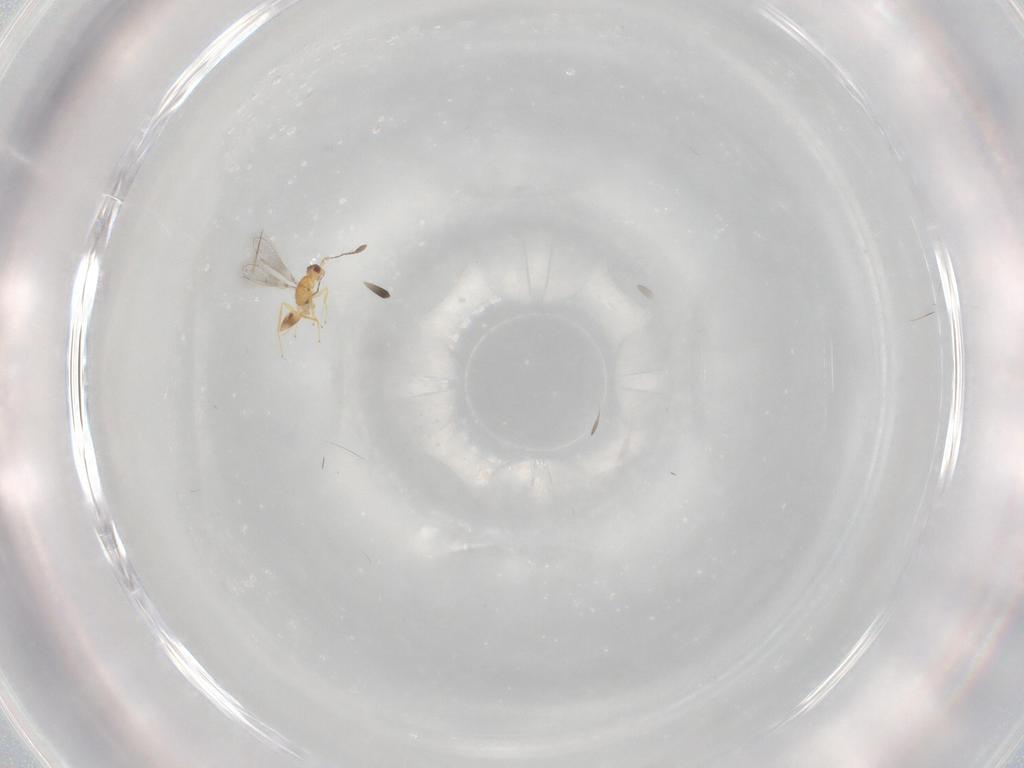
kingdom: Animalia
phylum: Arthropoda
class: Insecta
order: Hymenoptera
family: Mymaridae
